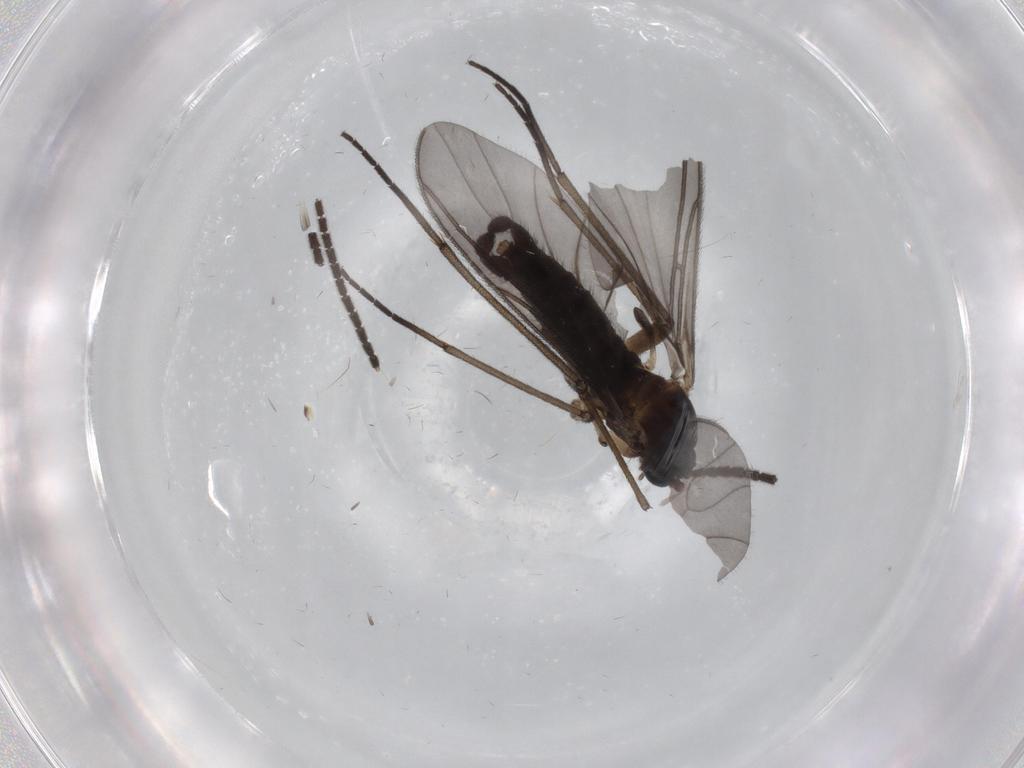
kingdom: Animalia
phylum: Arthropoda
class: Insecta
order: Diptera
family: Sciaridae
